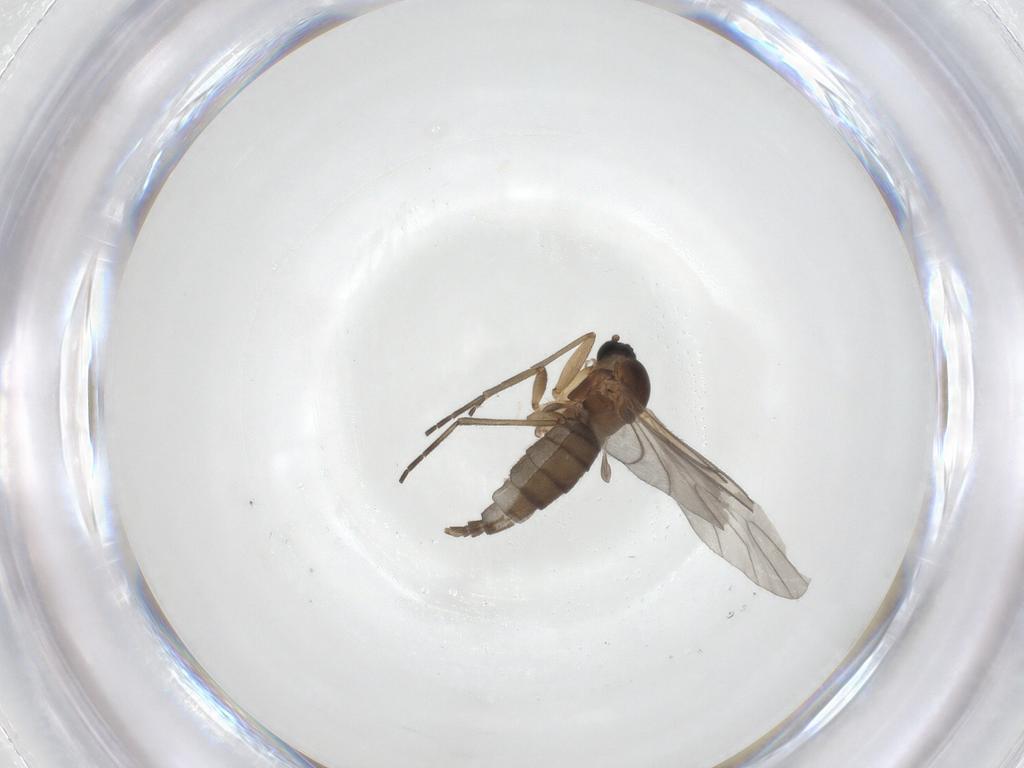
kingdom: Animalia
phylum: Arthropoda
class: Insecta
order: Diptera
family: Sciaridae
